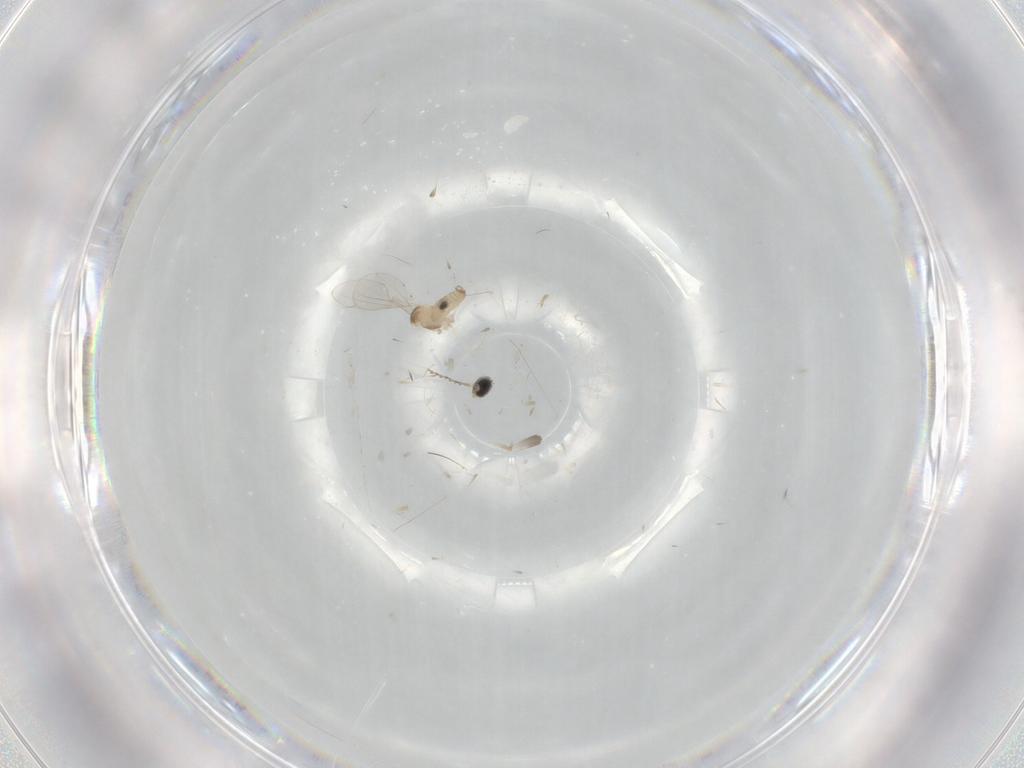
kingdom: Animalia
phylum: Arthropoda
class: Insecta
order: Diptera
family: Cecidomyiidae
